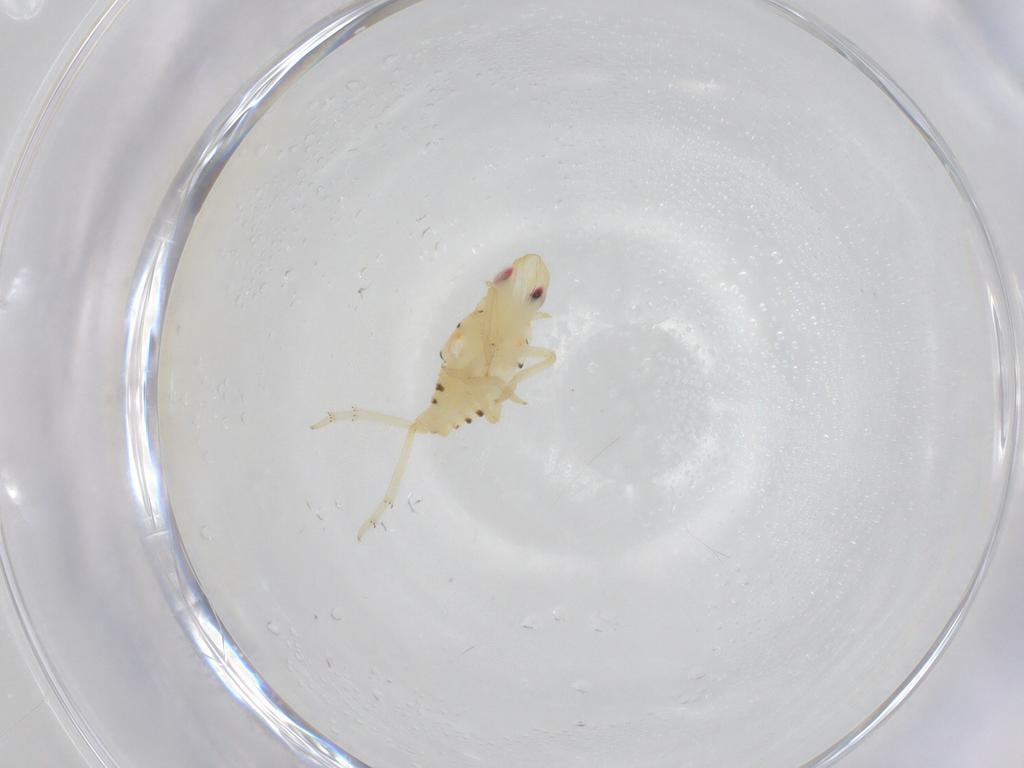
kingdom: Animalia
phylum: Arthropoda
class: Insecta
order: Hemiptera
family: Tropiduchidae
